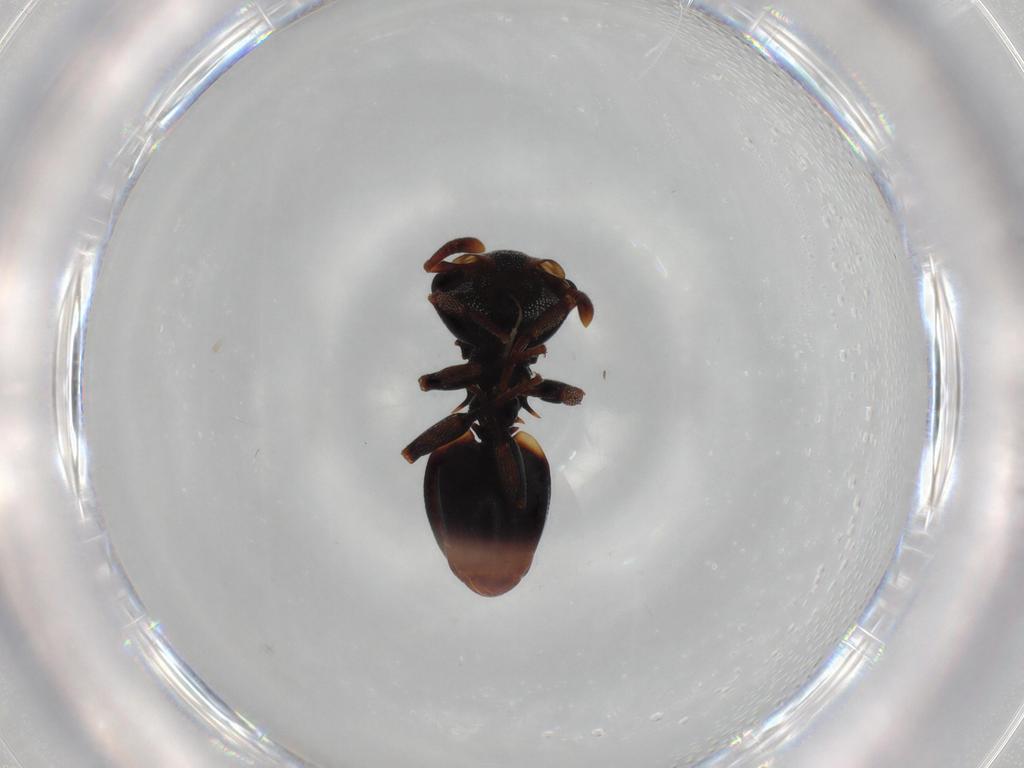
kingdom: Animalia
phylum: Arthropoda
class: Insecta
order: Hymenoptera
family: Formicidae
